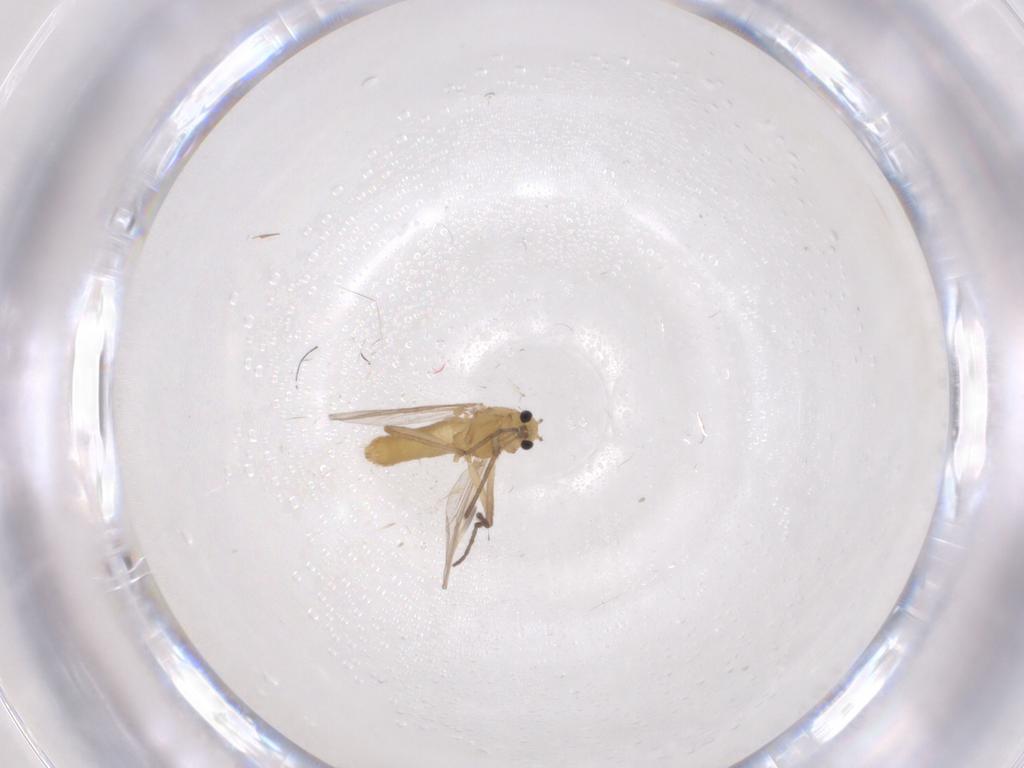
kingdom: Animalia
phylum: Arthropoda
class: Insecta
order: Diptera
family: Chironomidae
